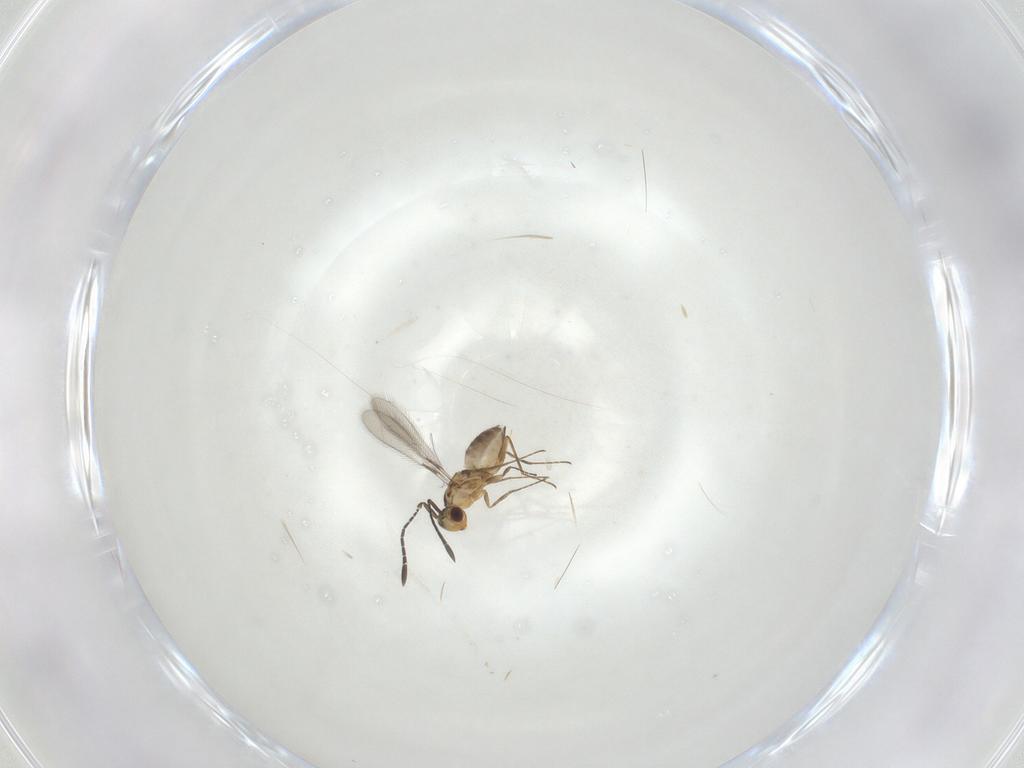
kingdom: Animalia
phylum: Arthropoda
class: Insecta
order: Hymenoptera
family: Mymaridae
